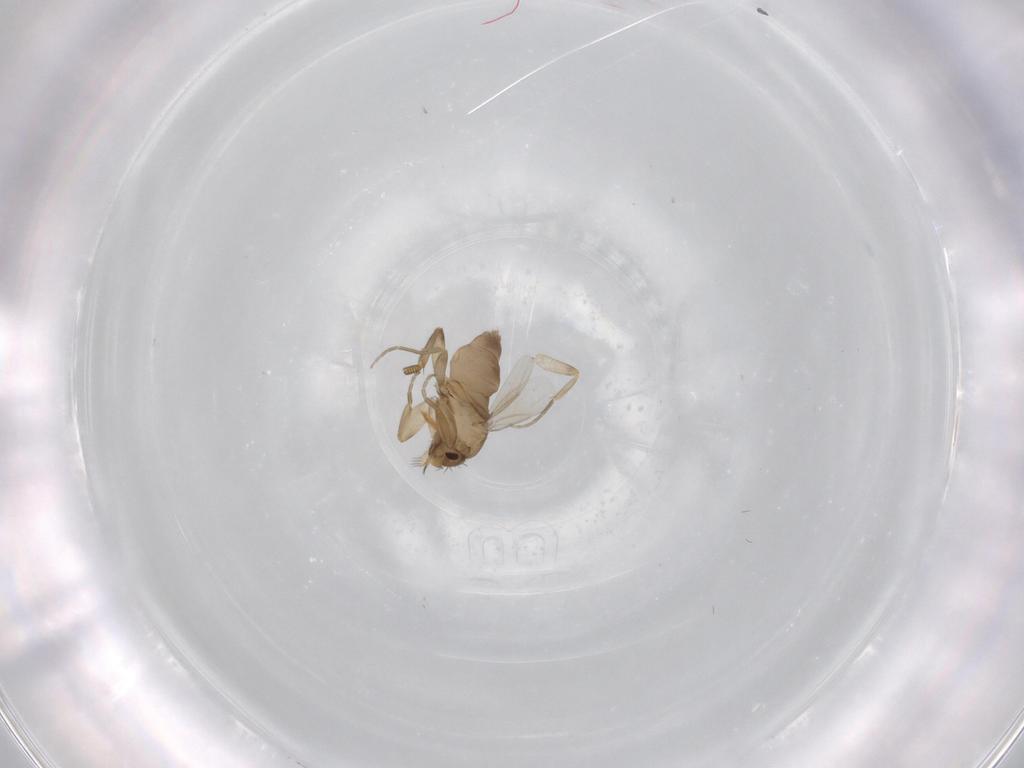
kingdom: Animalia
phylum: Arthropoda
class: Insecta
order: Diptera
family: Phoridae
